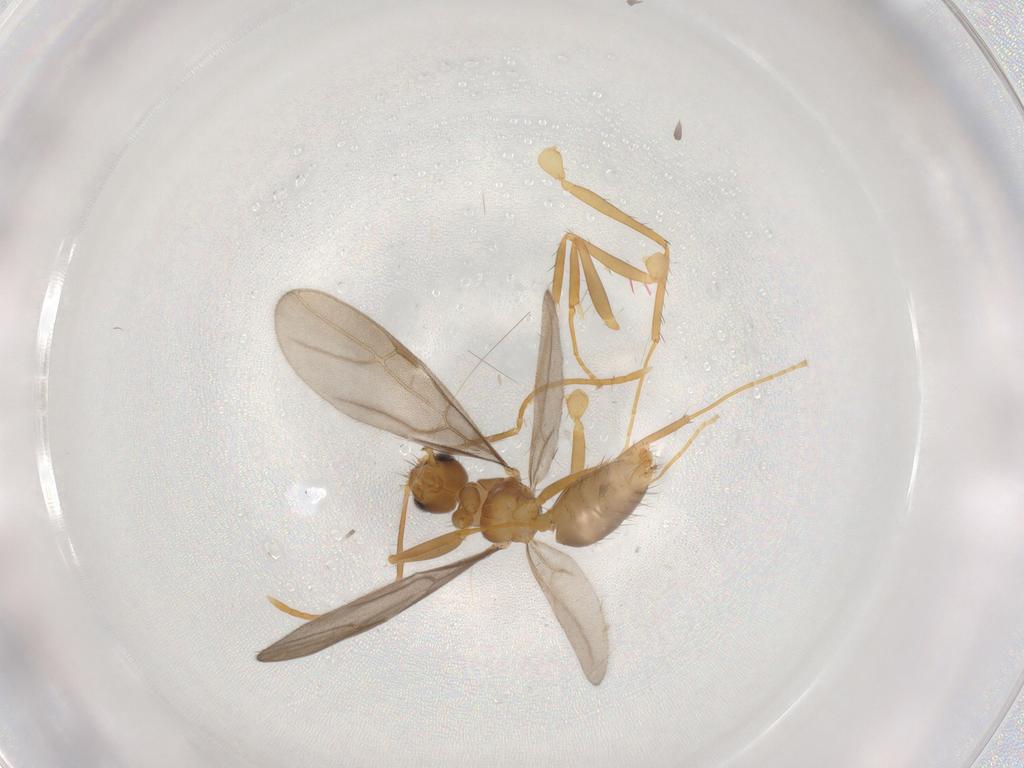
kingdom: Animalia
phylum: Arthropoda
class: Insecta
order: Hymenoptera
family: Formicidae
